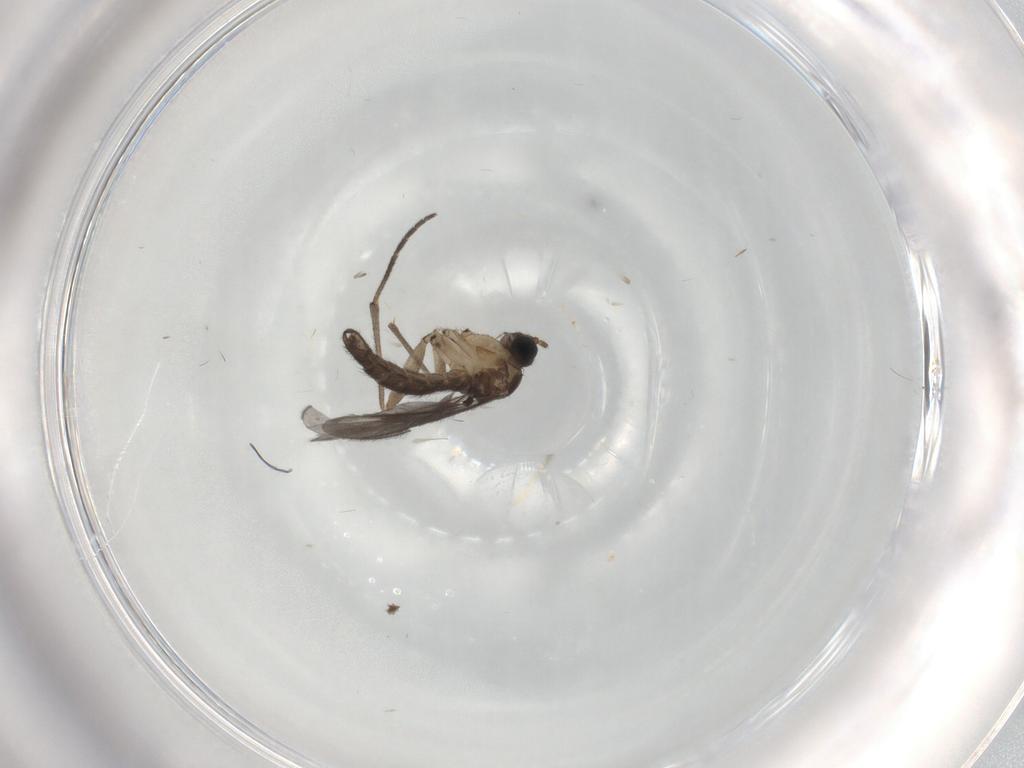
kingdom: Animalia
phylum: Arthropoda
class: Insecta
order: Diptera
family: Sciaridae
